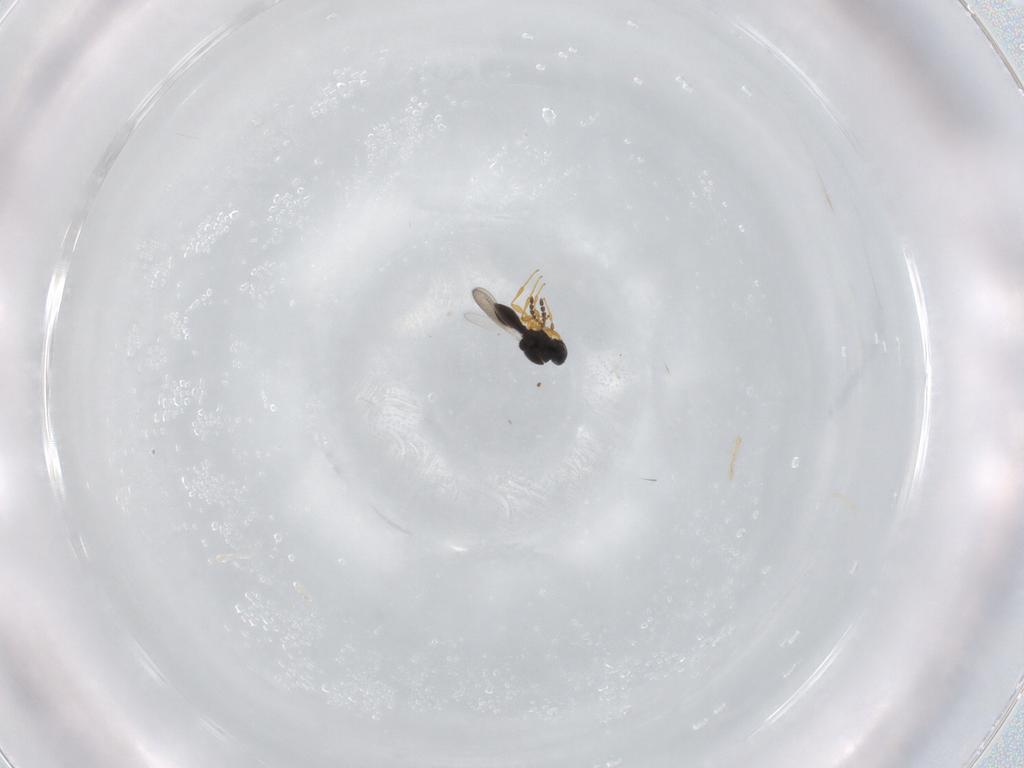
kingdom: Animalia
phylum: Arthropoda
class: Insecta
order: Hymenoptera
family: Platygastridae
